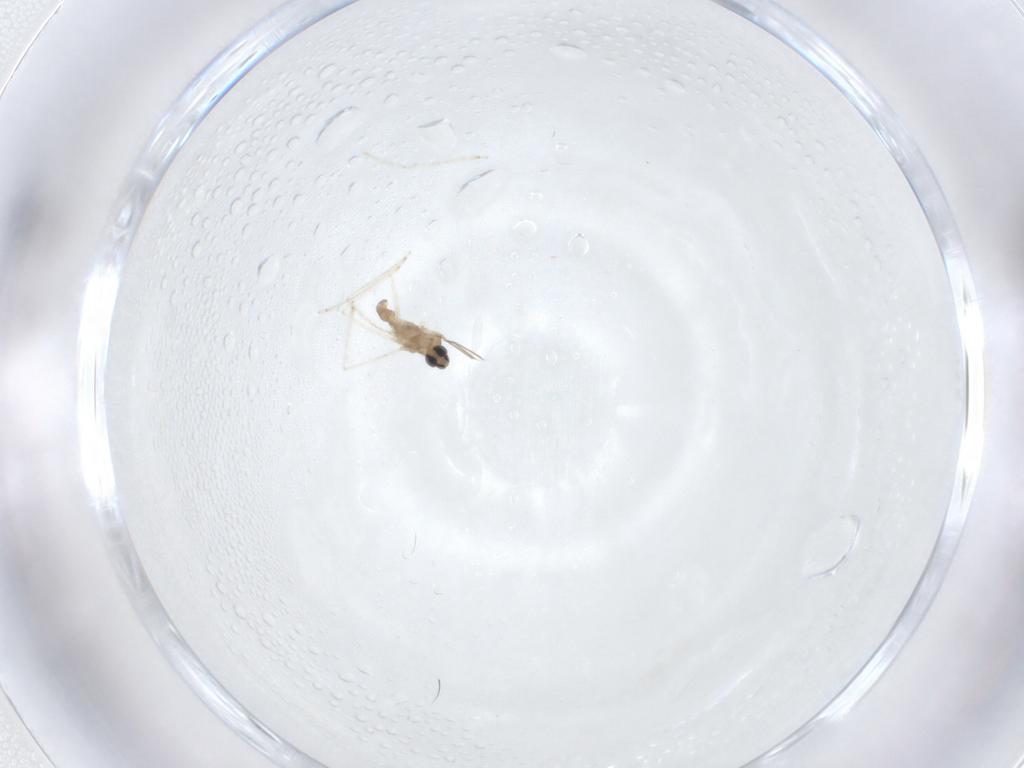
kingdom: Animalia
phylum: Arthropoda
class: Insecta
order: Diptera
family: Cecidomyiidae
